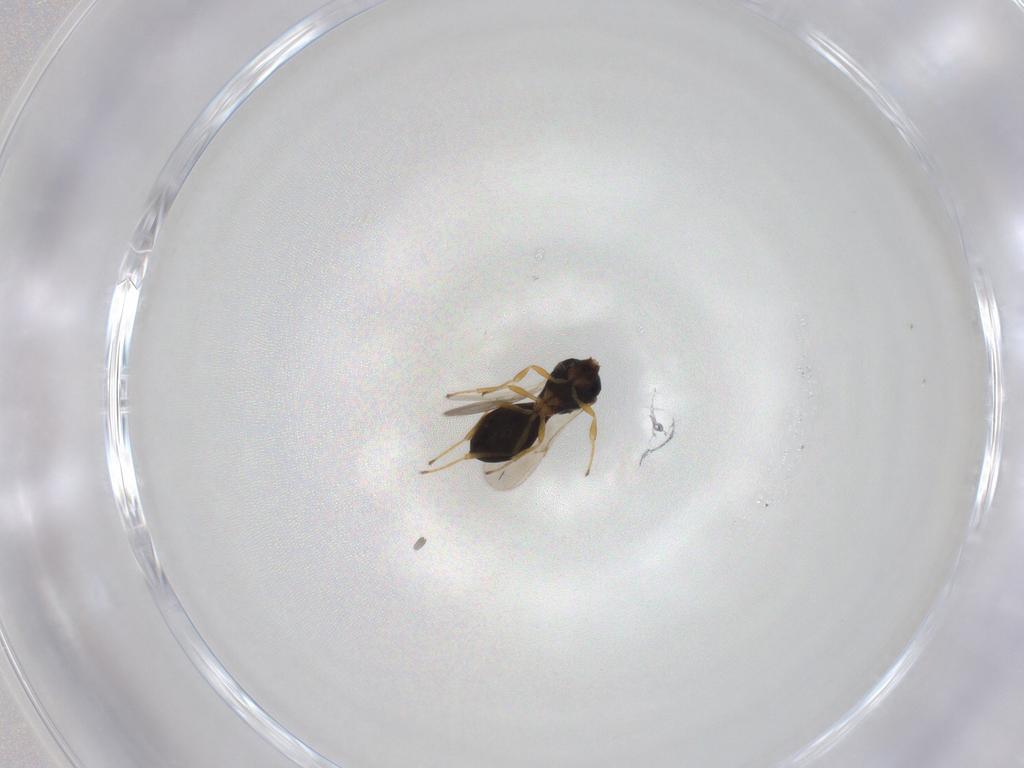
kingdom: Animalia
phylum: Arthropoda
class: Insecta
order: Hymenoptera
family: Scelionidae
